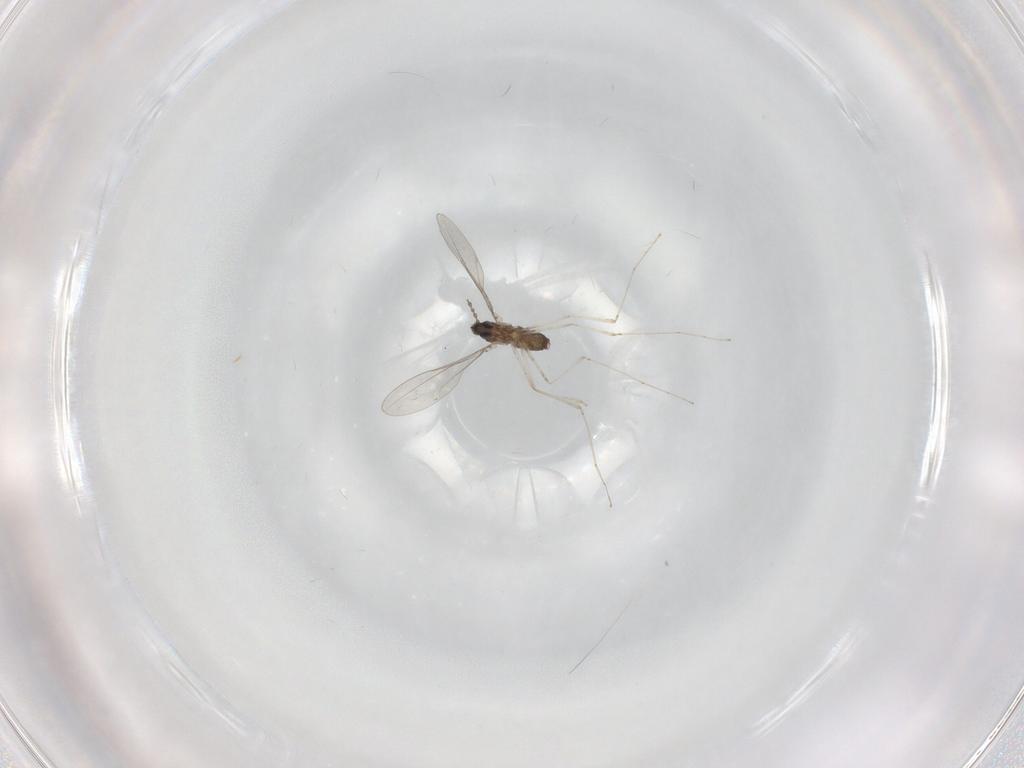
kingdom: Animalia
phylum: Arthropoda
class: Insecta
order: Diptera
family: Cecidomyiidae
